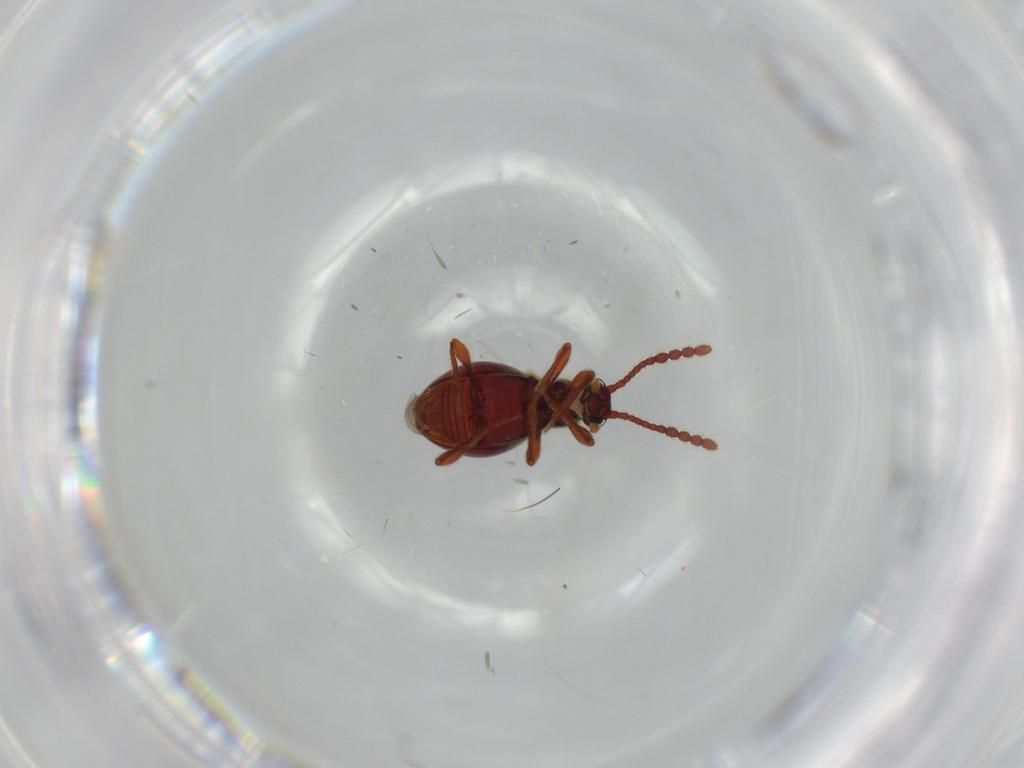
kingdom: Animalia
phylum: Arthropoda
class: Insecta
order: Coleoptera
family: Staphylinidae
